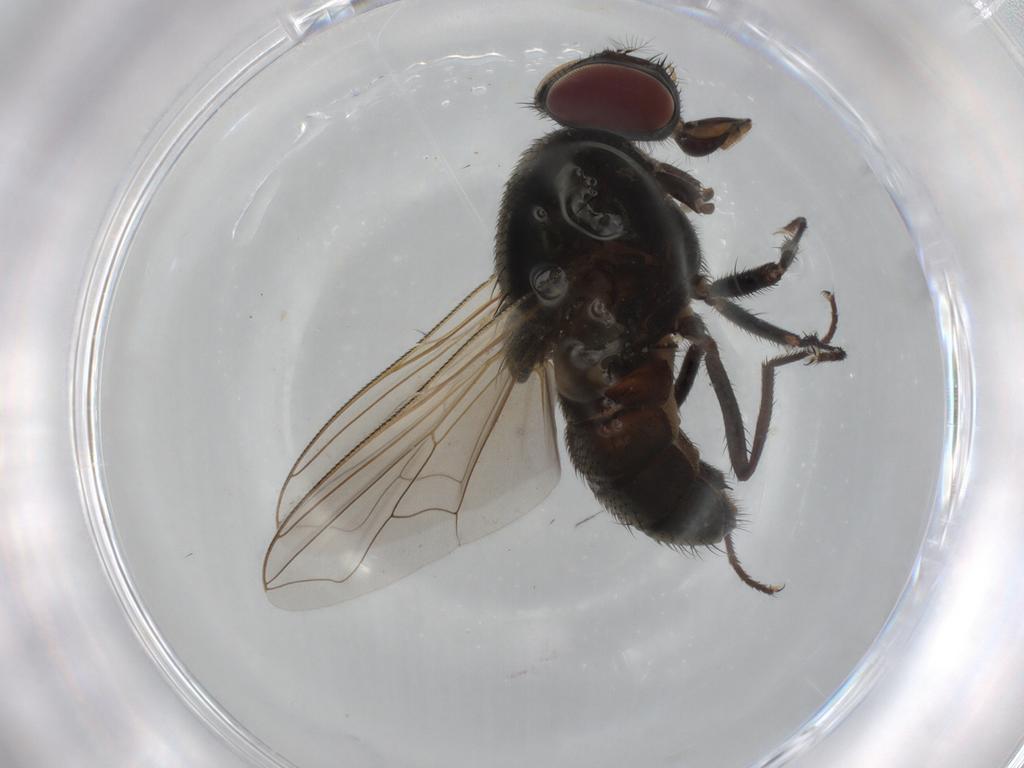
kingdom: Animalia
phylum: Arthropoda
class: Insecta
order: Diptera
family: Muscidae
